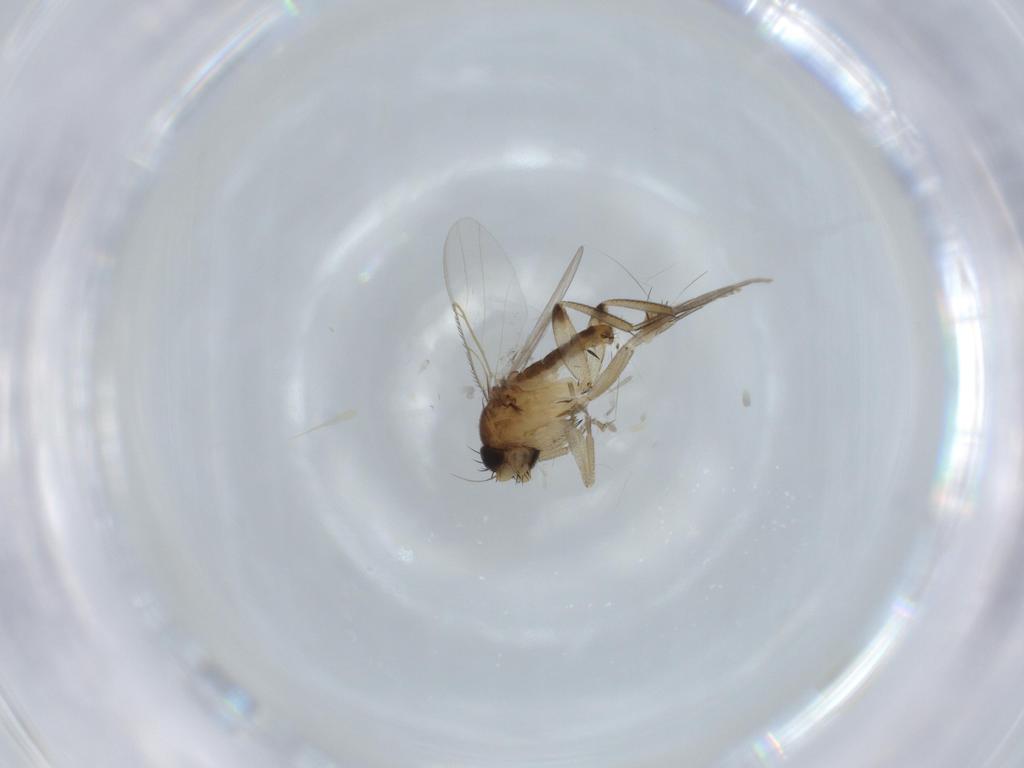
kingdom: Animalia
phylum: Arthropoda
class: Insecta
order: Diptera
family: Phoridae
